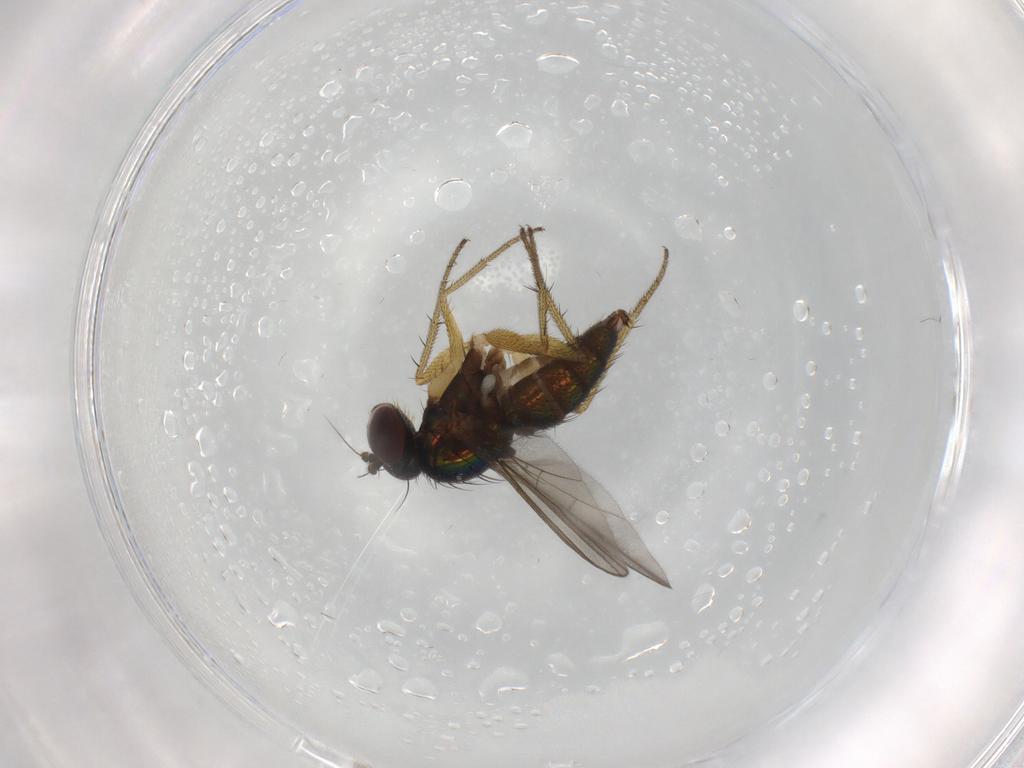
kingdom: Animalia
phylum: Arthropoda
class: Insecta
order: Diptera
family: Dolichopodidae
